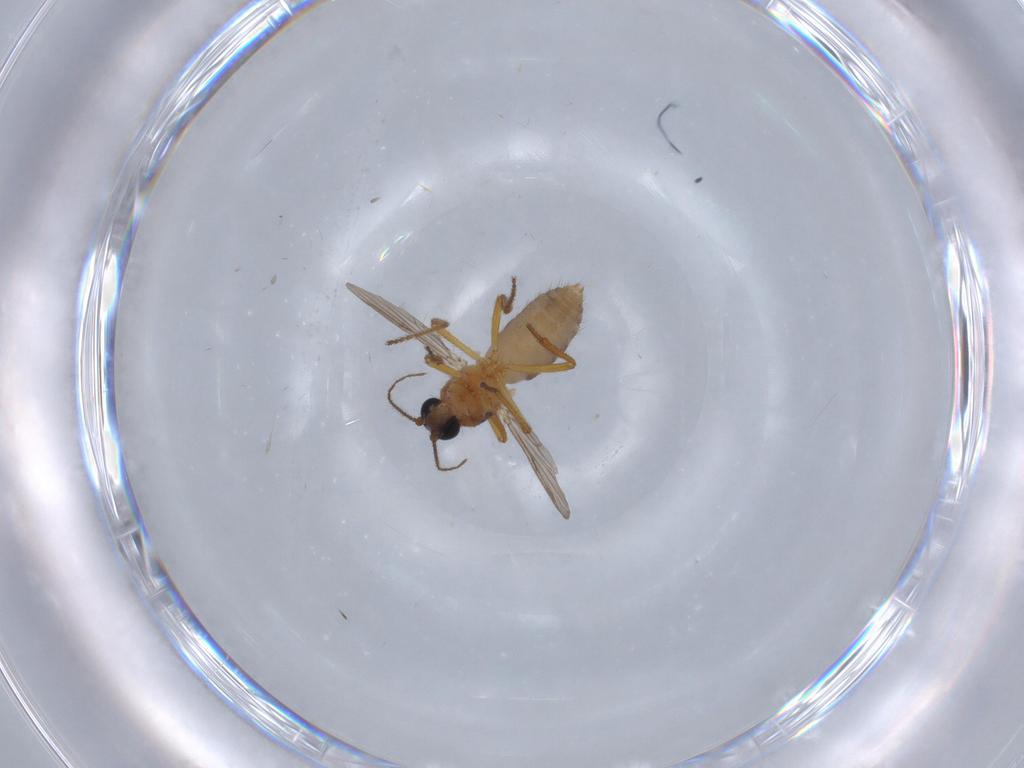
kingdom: Animalia
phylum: Arthropoda
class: Insecta
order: Diptera
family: Ceratopogonidae
